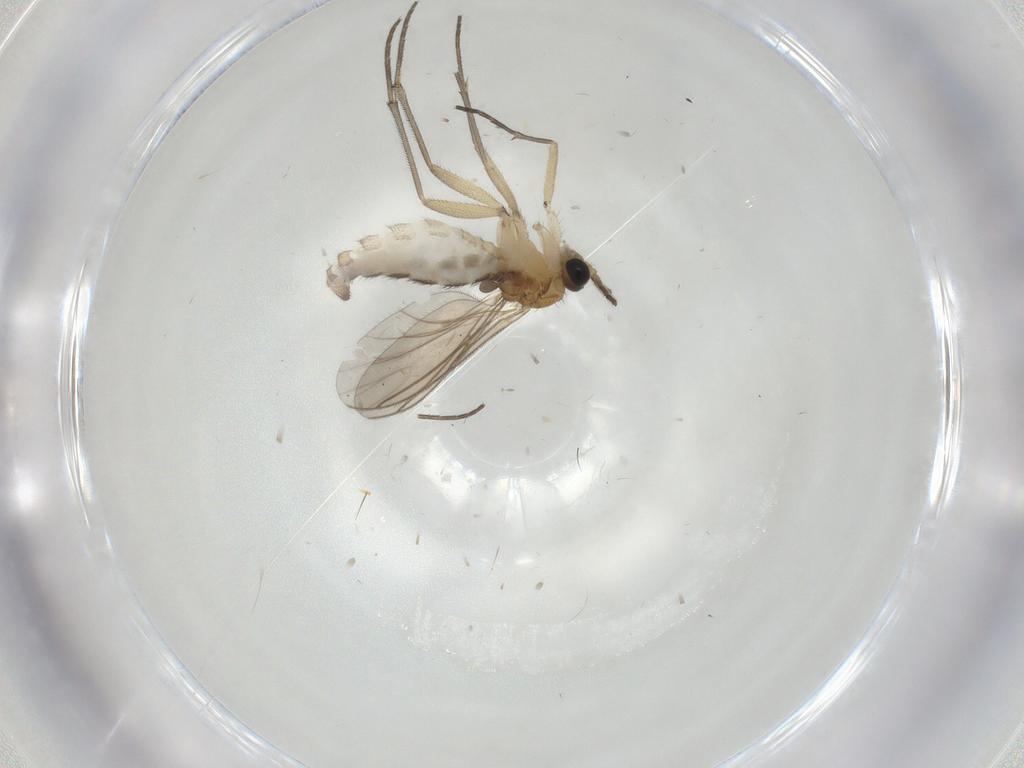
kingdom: Animalia
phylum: Arthropoda
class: Insecta
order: Diptera
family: Sciaridae
